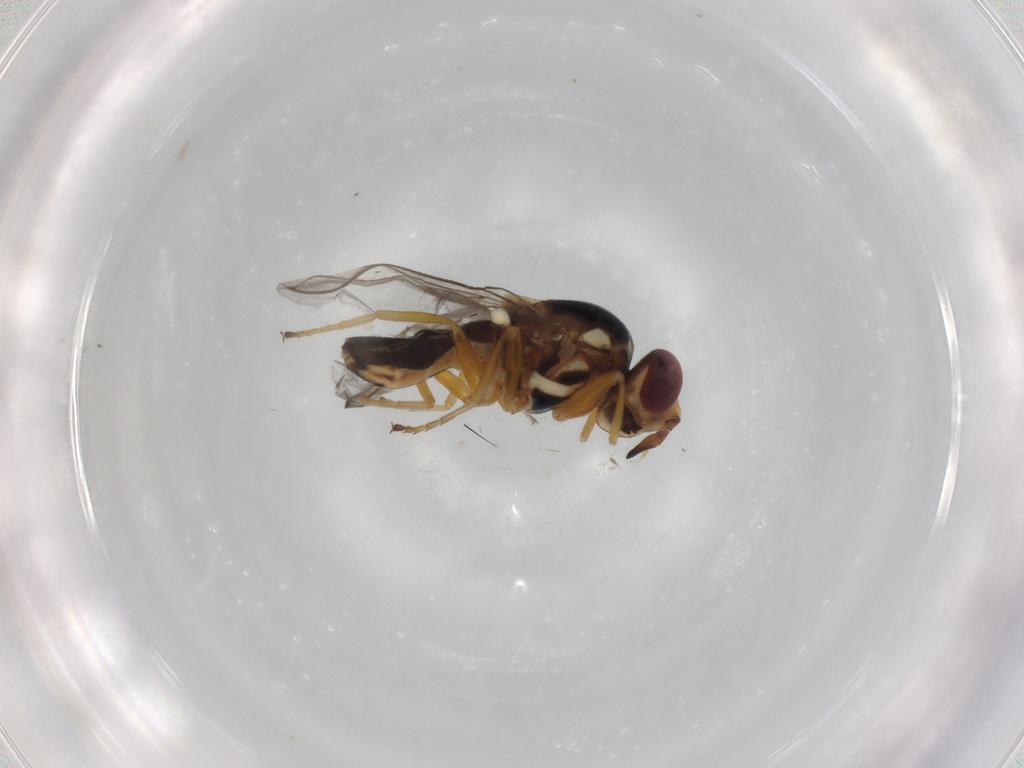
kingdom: Animalia
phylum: Arthropoda
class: Insecta
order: Diptera
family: Chloropidae
